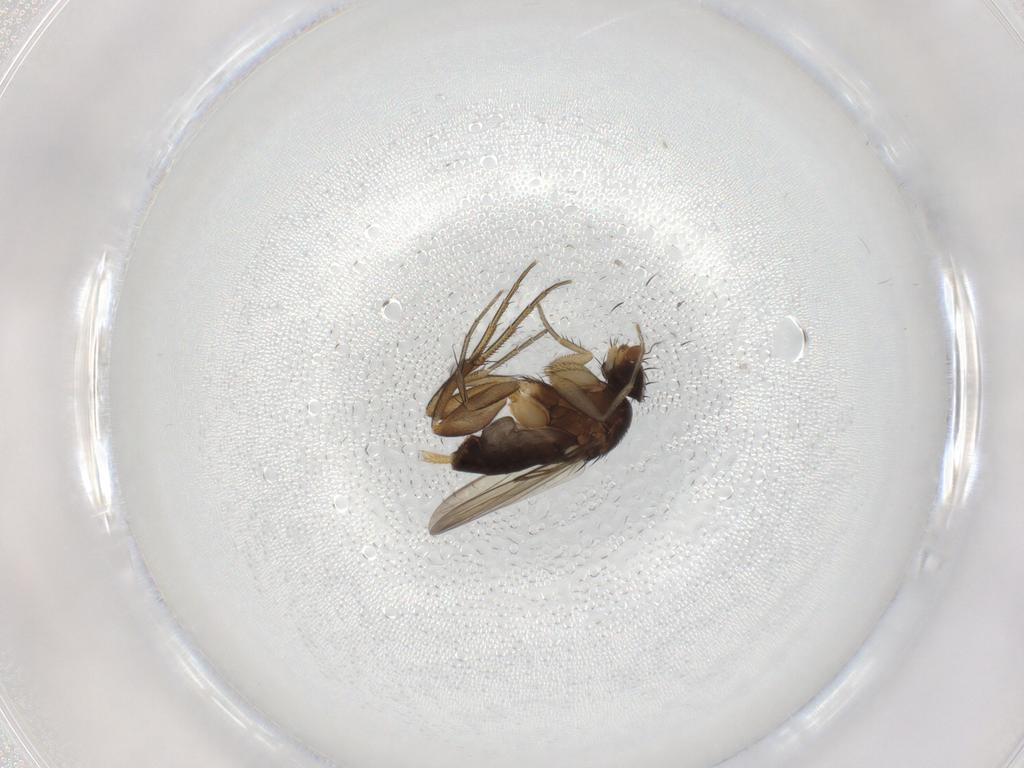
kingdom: Animalia
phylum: Arthropoda
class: Insecta
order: Diptera
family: Dolichopodidae
